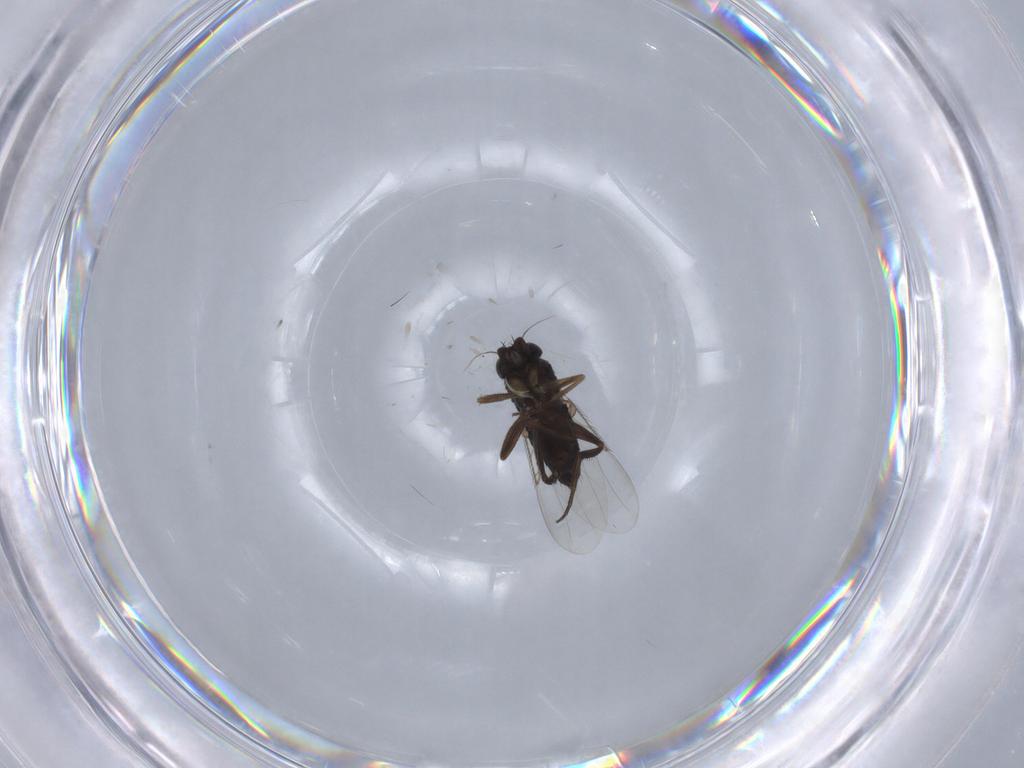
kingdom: Animalia
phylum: Arthropoda
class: Insecta
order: Diptera
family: Phoridae
